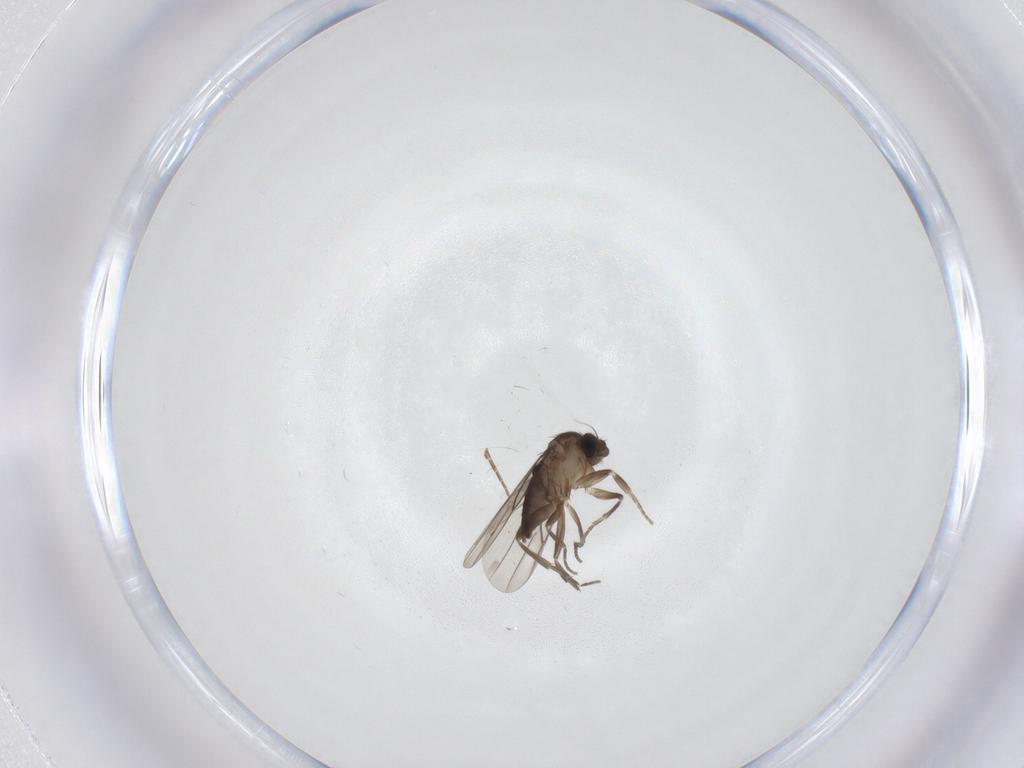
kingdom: Animalia
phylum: Arthropoda
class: Insecta
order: Diptera
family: Phoridae
